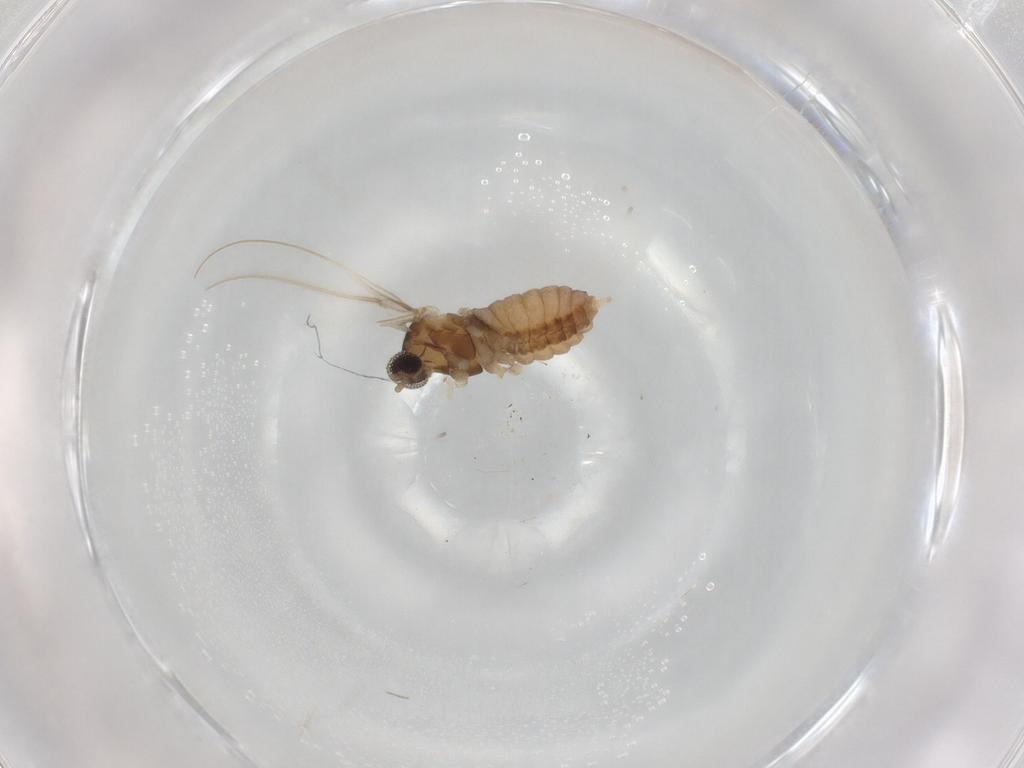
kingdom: Animalia
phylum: Arthropoda
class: Insecta
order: Diptera
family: Cecidomyiidae
